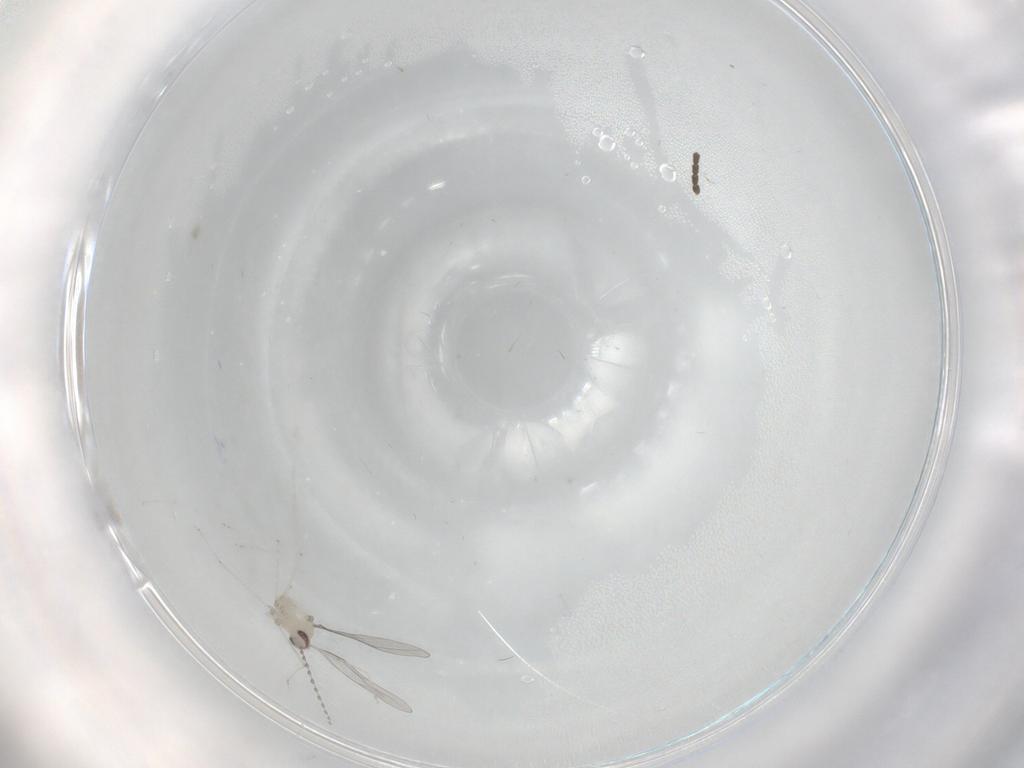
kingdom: Animalia
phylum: Arthropoda
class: Insecta
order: Diptera
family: Cecidomyiidae
